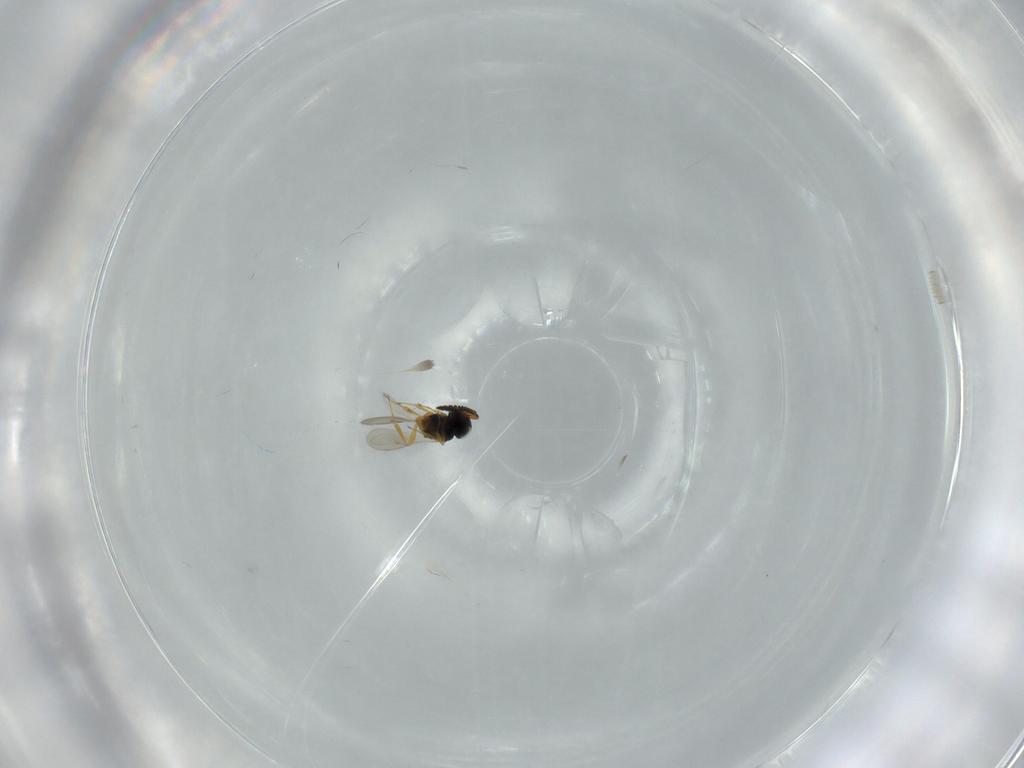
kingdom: Animalia
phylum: Arthropoda
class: Insecta
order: Hymenoptera
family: Scelionidae
